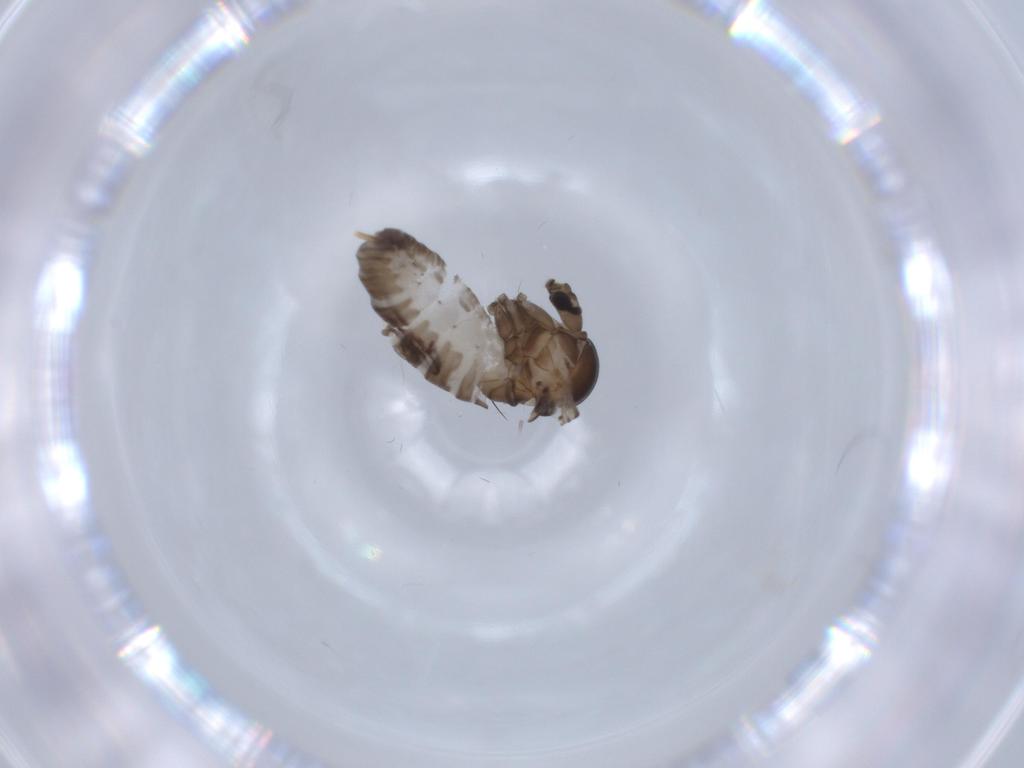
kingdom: Animalia
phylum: Arthropoda
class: Insecta
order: Diptera
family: Psychodidae
